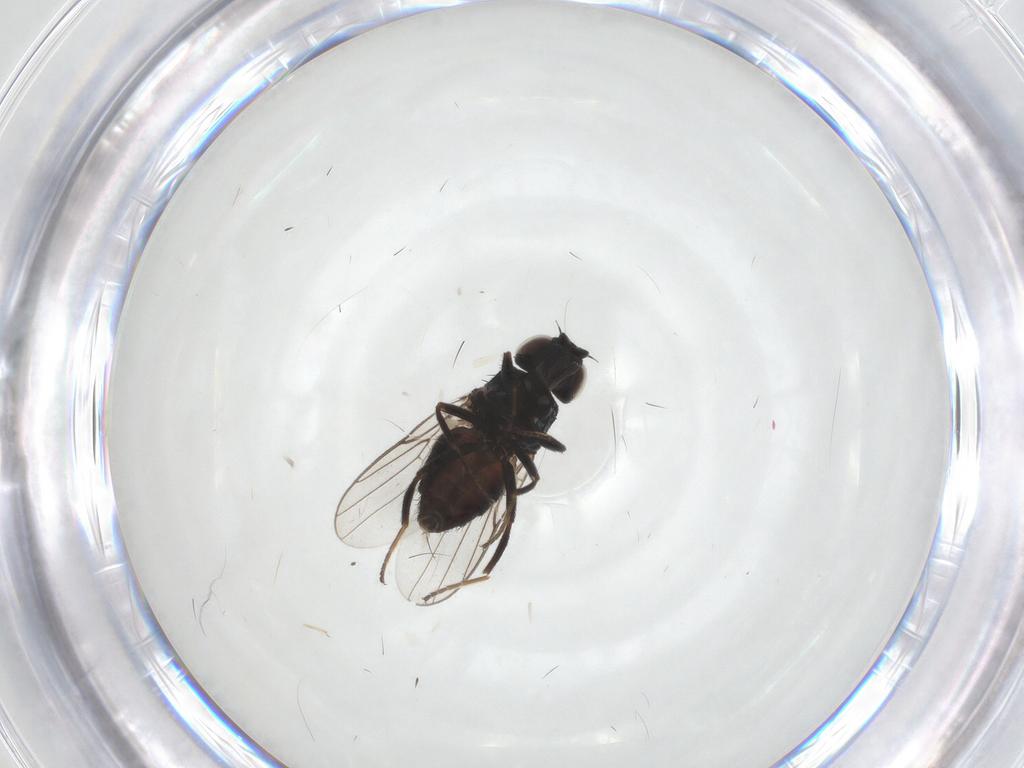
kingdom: Animalia
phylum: Arthropoda
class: Insecta
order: Diptera
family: Chloropidae
